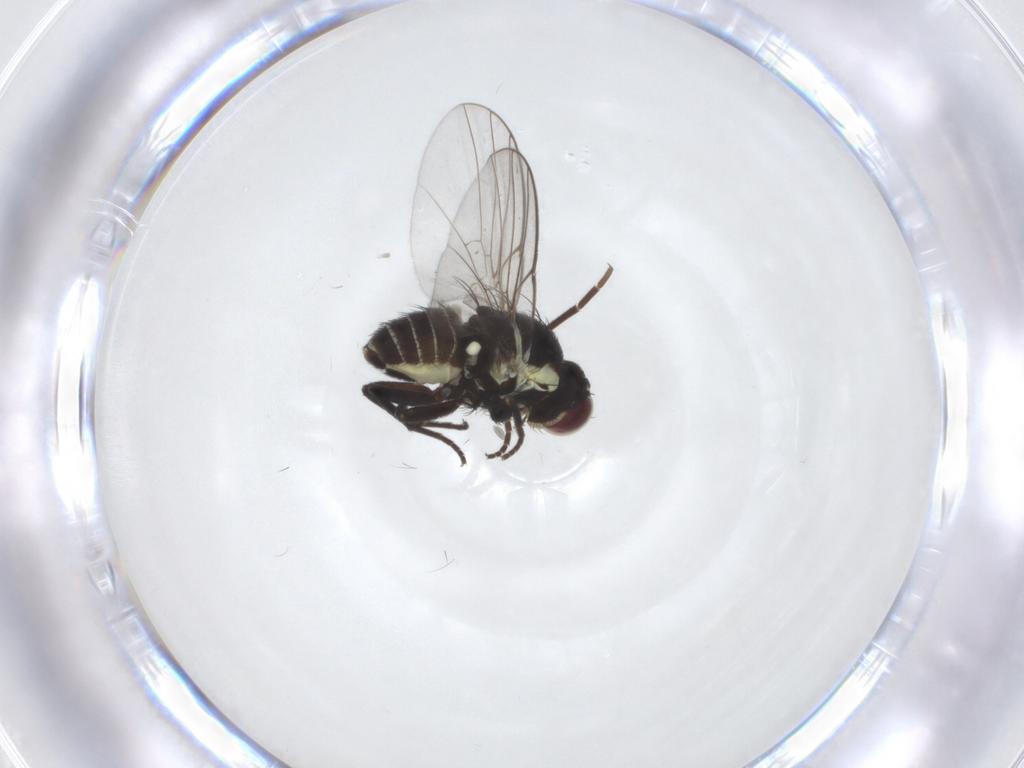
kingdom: Animalia
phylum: Arthropoda
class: Insecta
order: Diptera
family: Agromyzidae
